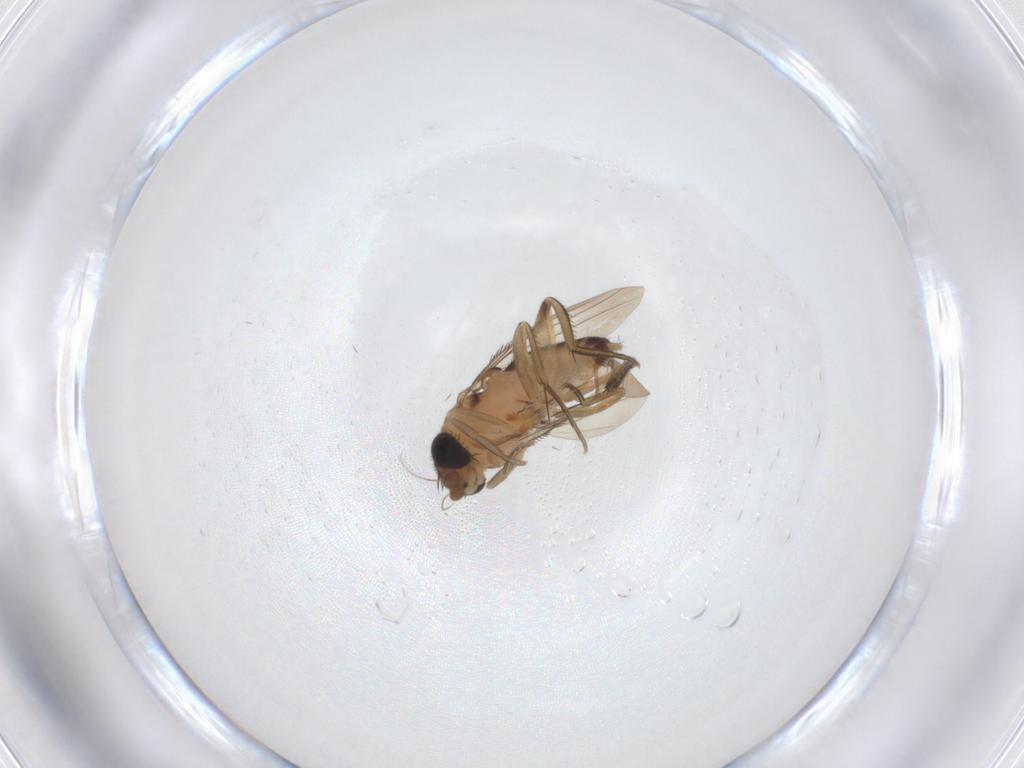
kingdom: Animalia
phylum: Arthropoda
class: Insecta
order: Diptera
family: Phoridae
